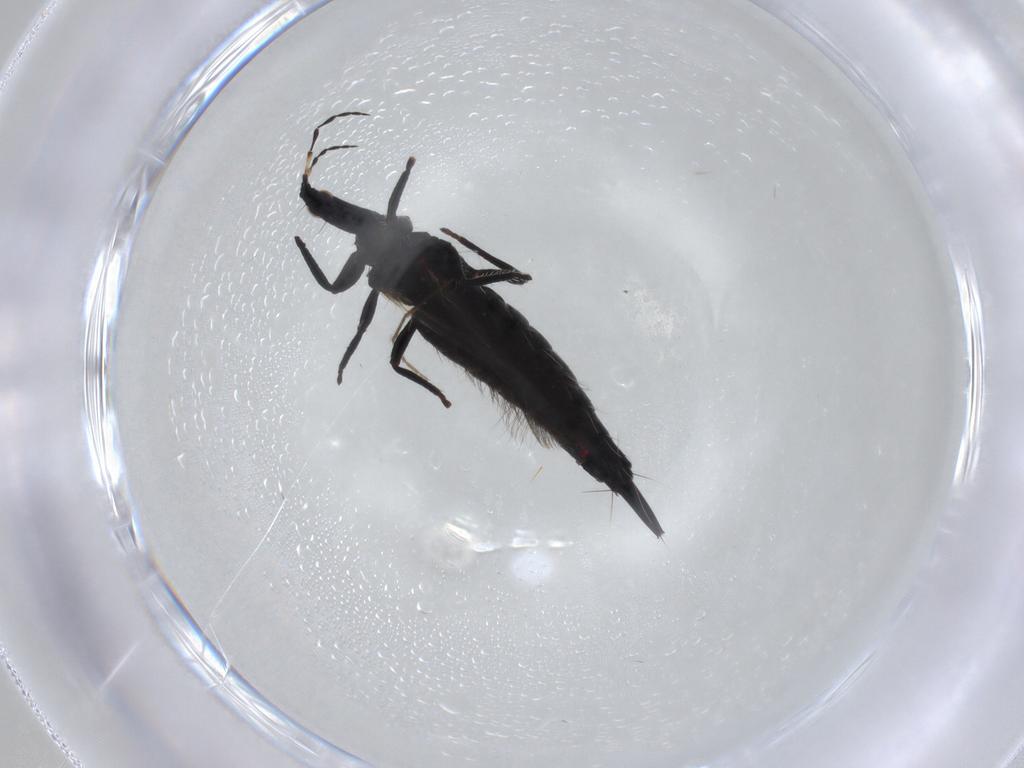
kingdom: Animalia
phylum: Arthropoda
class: Insecta
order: Thysanoptera
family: Phlaeothripidae
